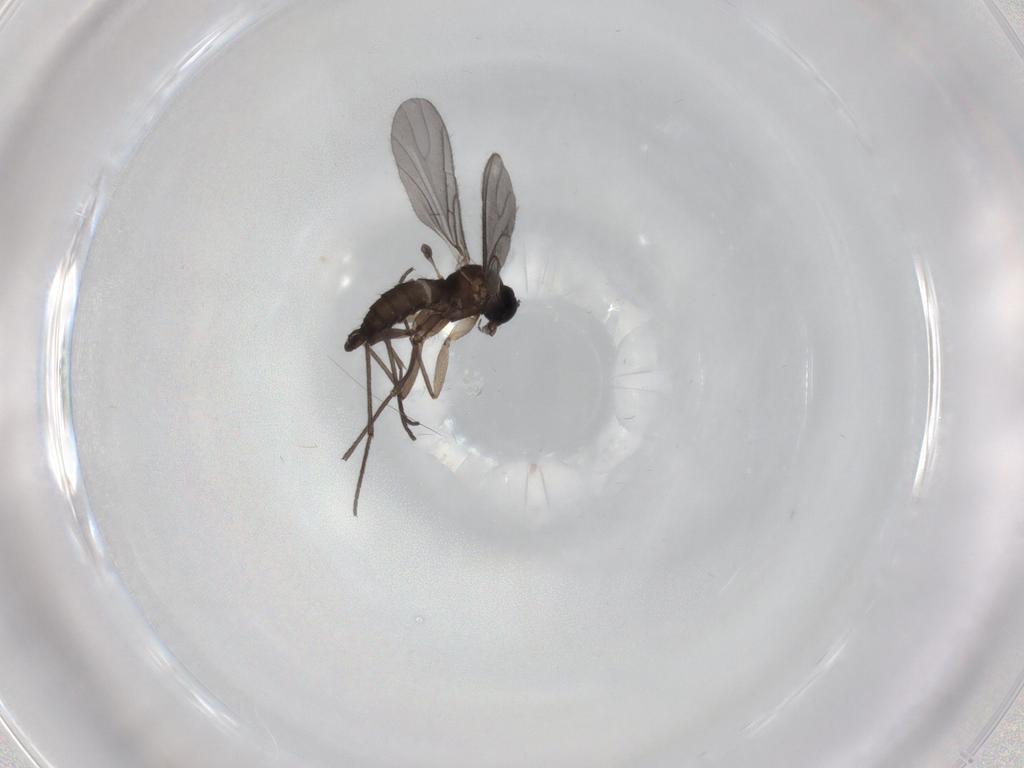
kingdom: Animalia
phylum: Arthropoda
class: Insecta
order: Diptera
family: Sciaridae
